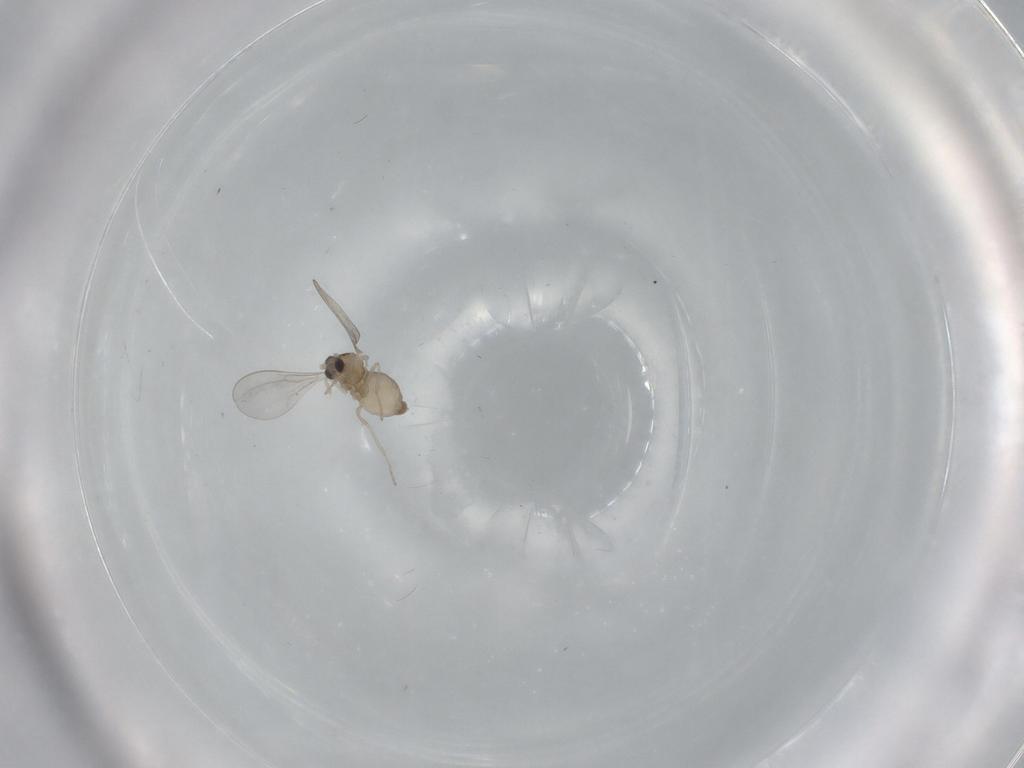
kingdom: Animalia
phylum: Arthropoda
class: Insecta
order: Diptera
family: Cecidomyiidae
